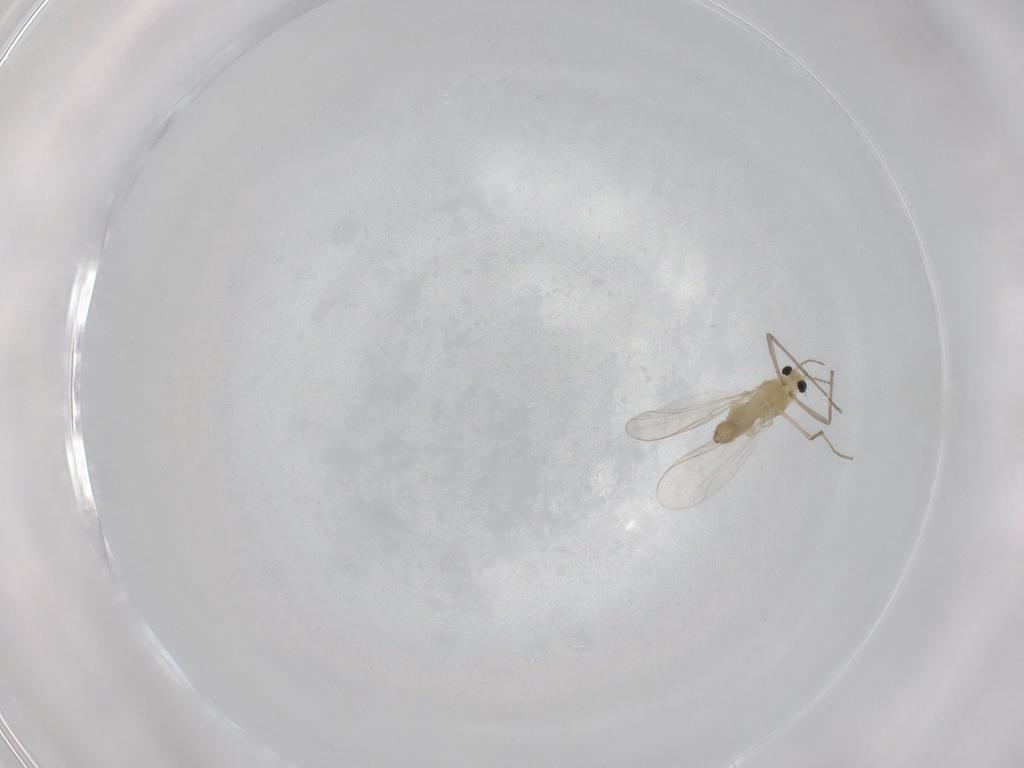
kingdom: Animalia
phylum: Arthropoda
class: Insecta
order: Diptera
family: Chironomidae
